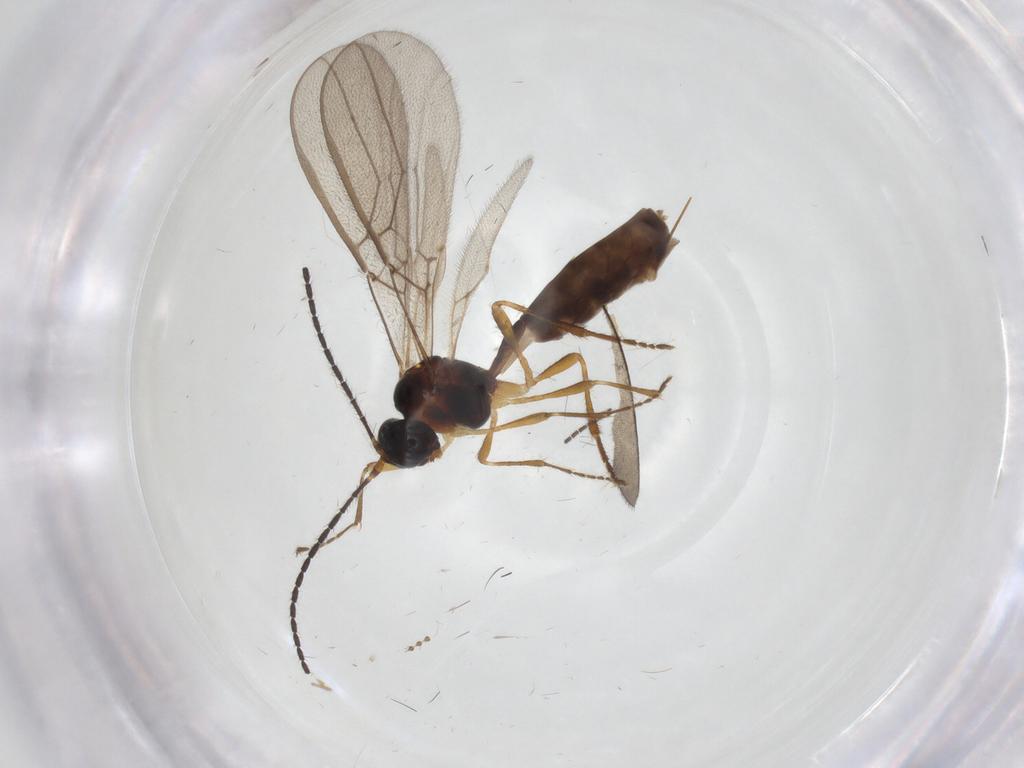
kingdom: Animalia
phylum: Arthropoda
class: Insecta
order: Hymenoptera
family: Braconidae
